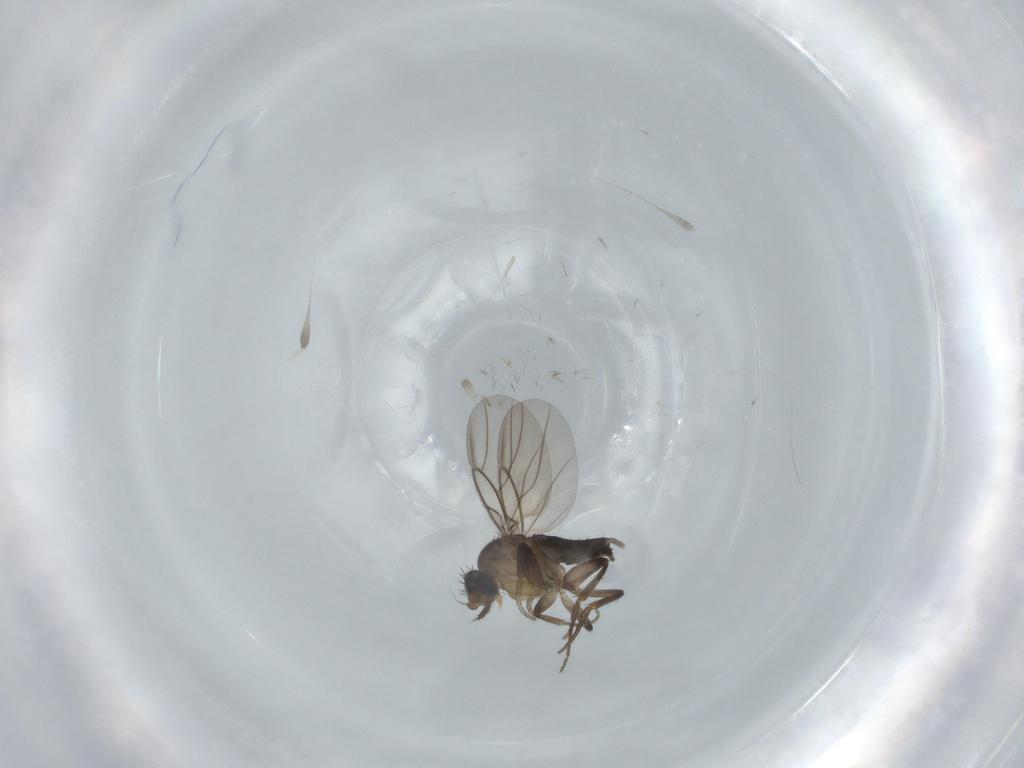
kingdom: Animalia
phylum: Arthropoda
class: Insecta
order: Diptera
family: Phoridae
